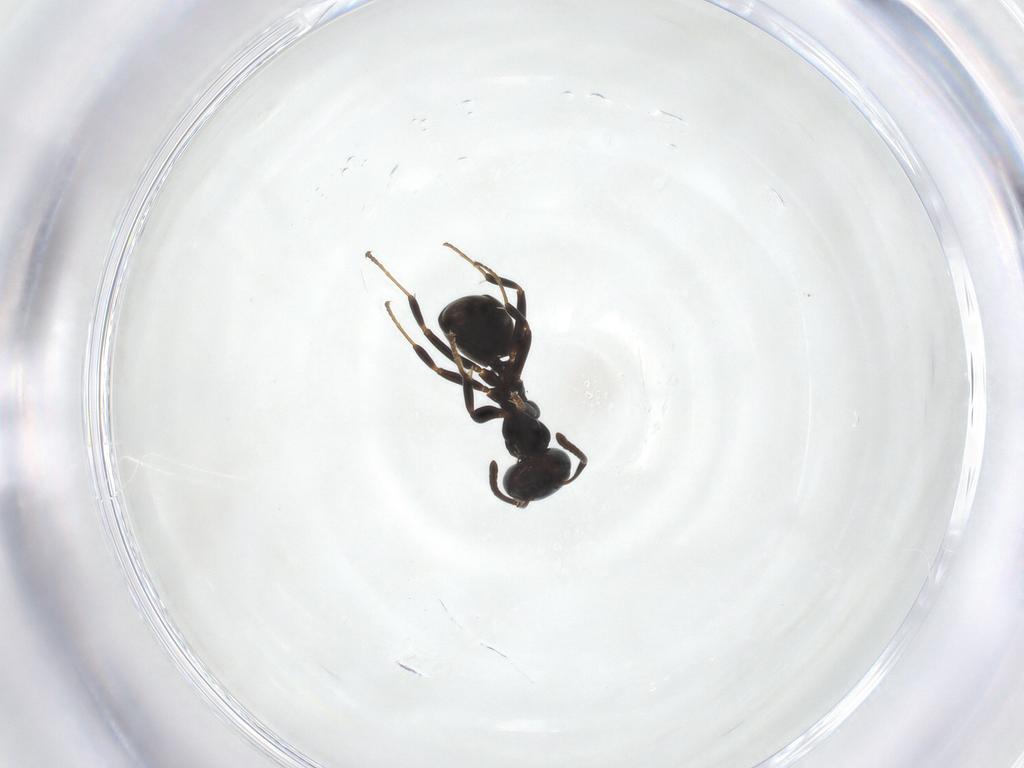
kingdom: Animalia
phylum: Arthropoda
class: Insecta
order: Hymenoptera
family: Formicidae
